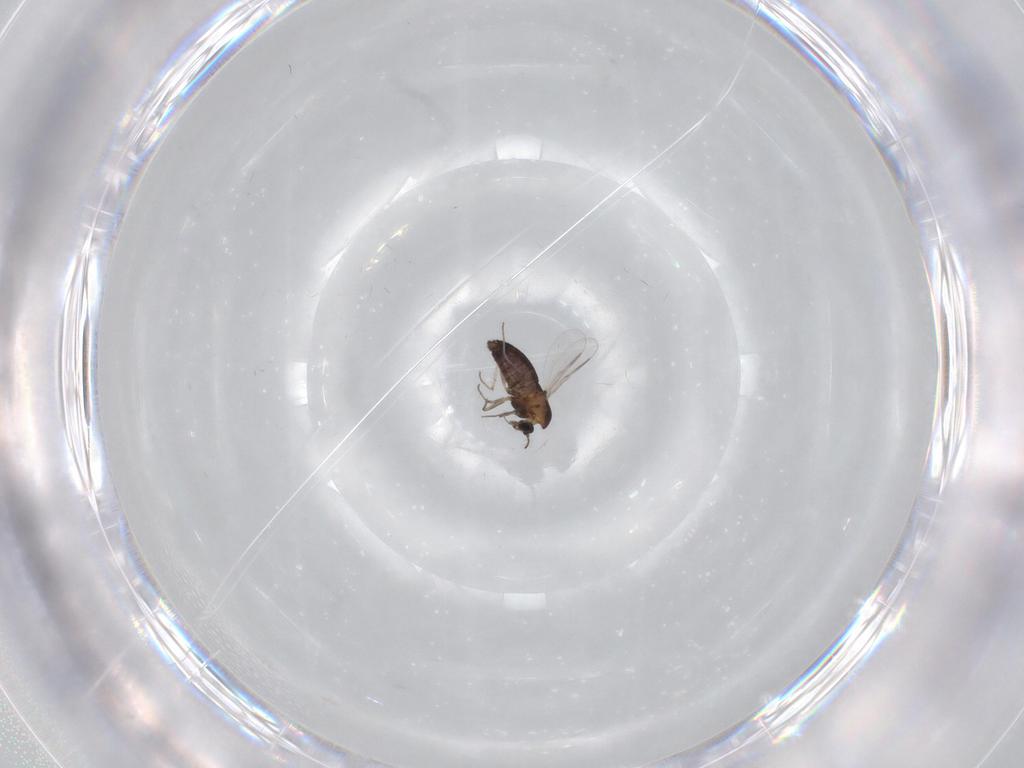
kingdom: Animalia
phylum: Arthropoda
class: Insecta
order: Diptera
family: Chironomidae
